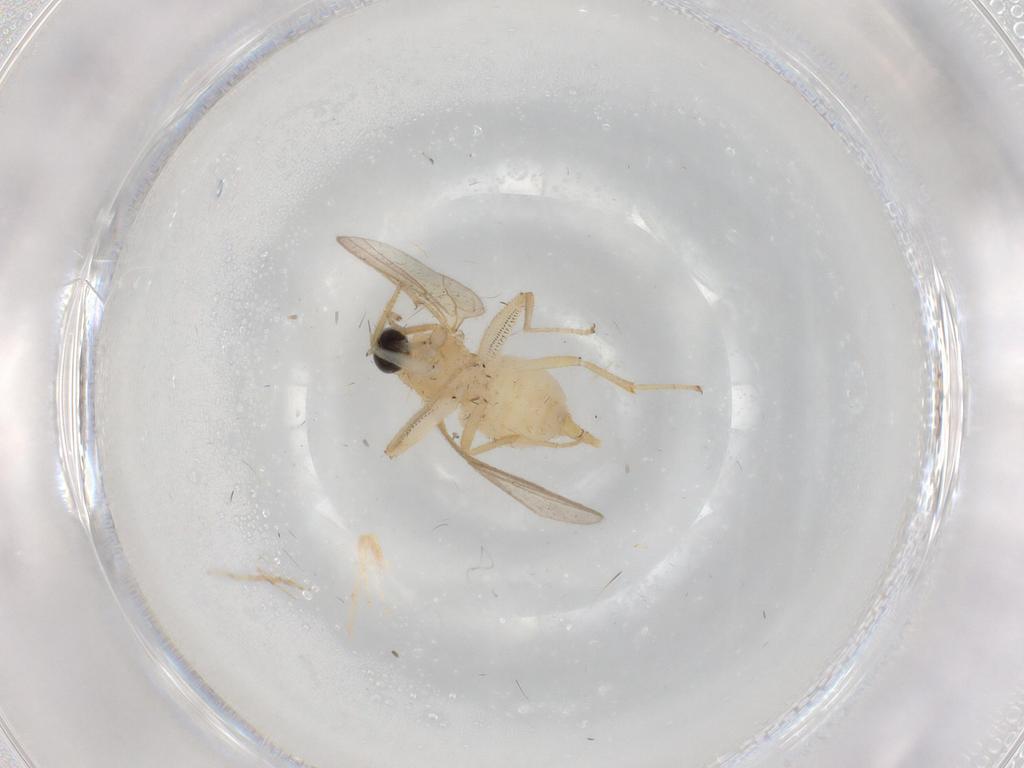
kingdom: Animalia
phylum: Arthropoda
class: Insecta
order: Diptera
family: Hybotidae
